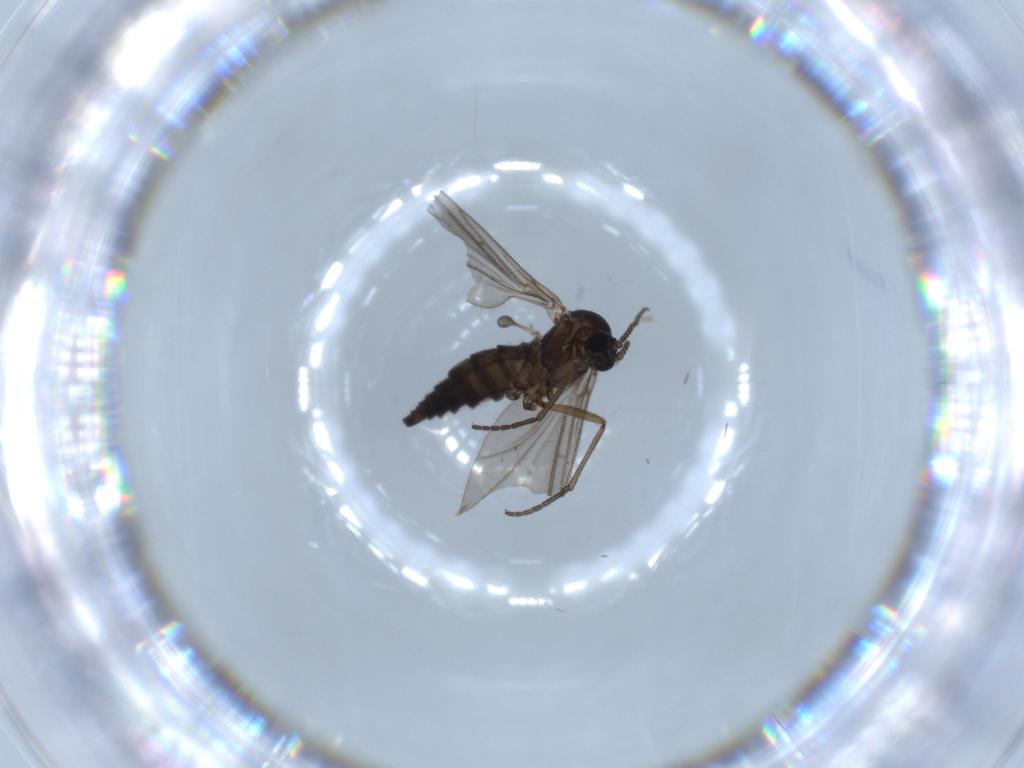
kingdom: Animalia
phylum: Arthropoda
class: Insecta
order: Diptera
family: Sciaridae
